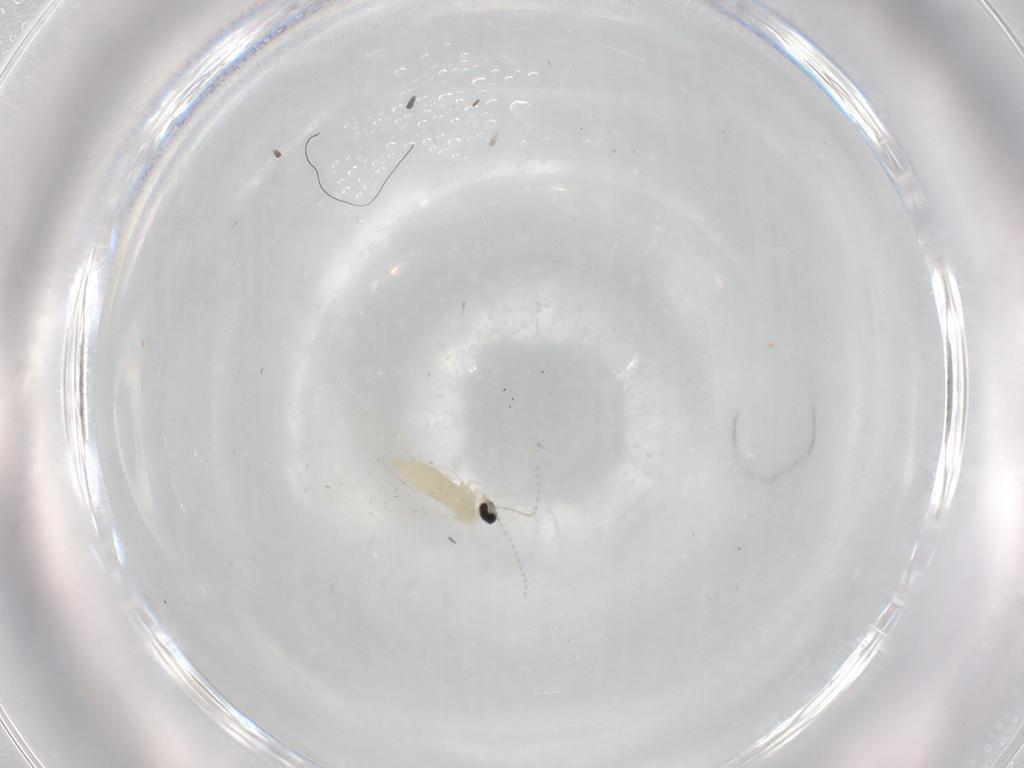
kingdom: Animalia
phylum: Arthropoda
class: Insecta
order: Diptera
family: Cecidomyiidae
